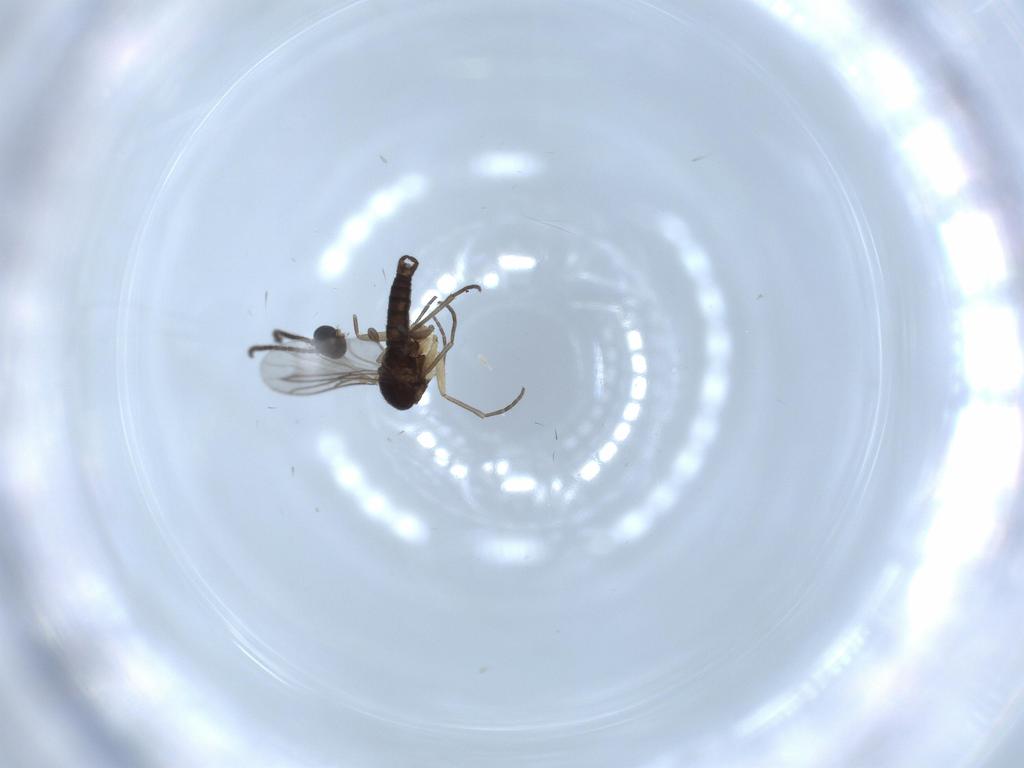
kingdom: Animalia
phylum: Arthropoda
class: Insecta
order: Diptera
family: Sciaridae
